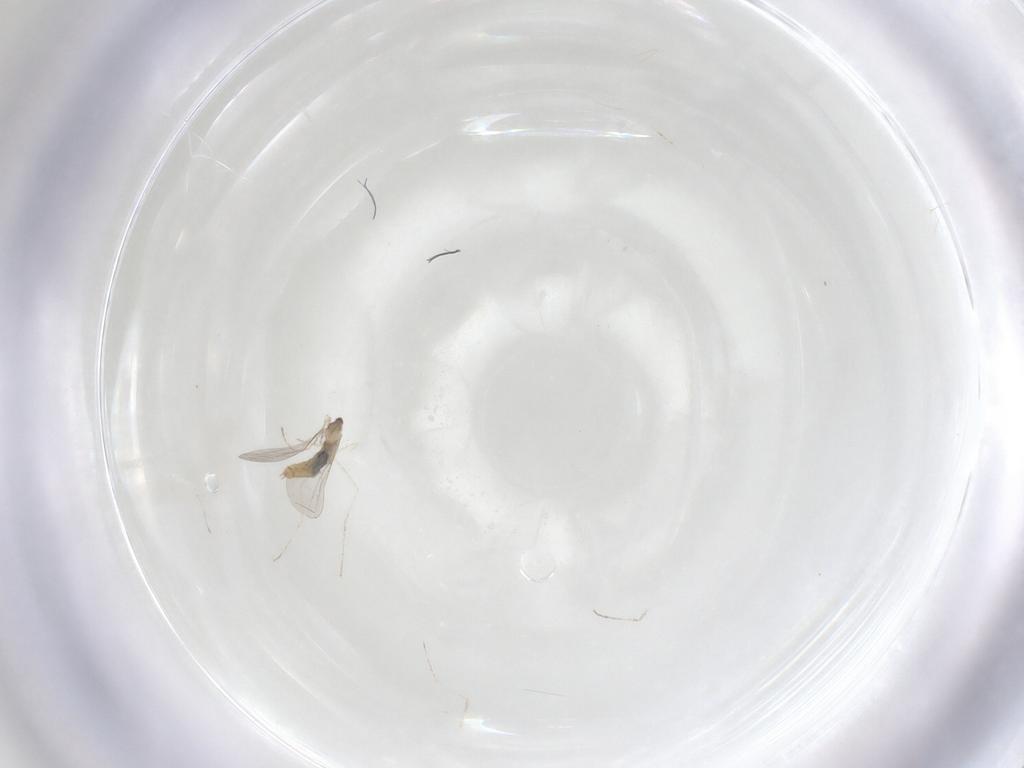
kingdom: Animalia
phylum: Arthropoda
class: Insecta
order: Diptera
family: Cecidomyiidae
